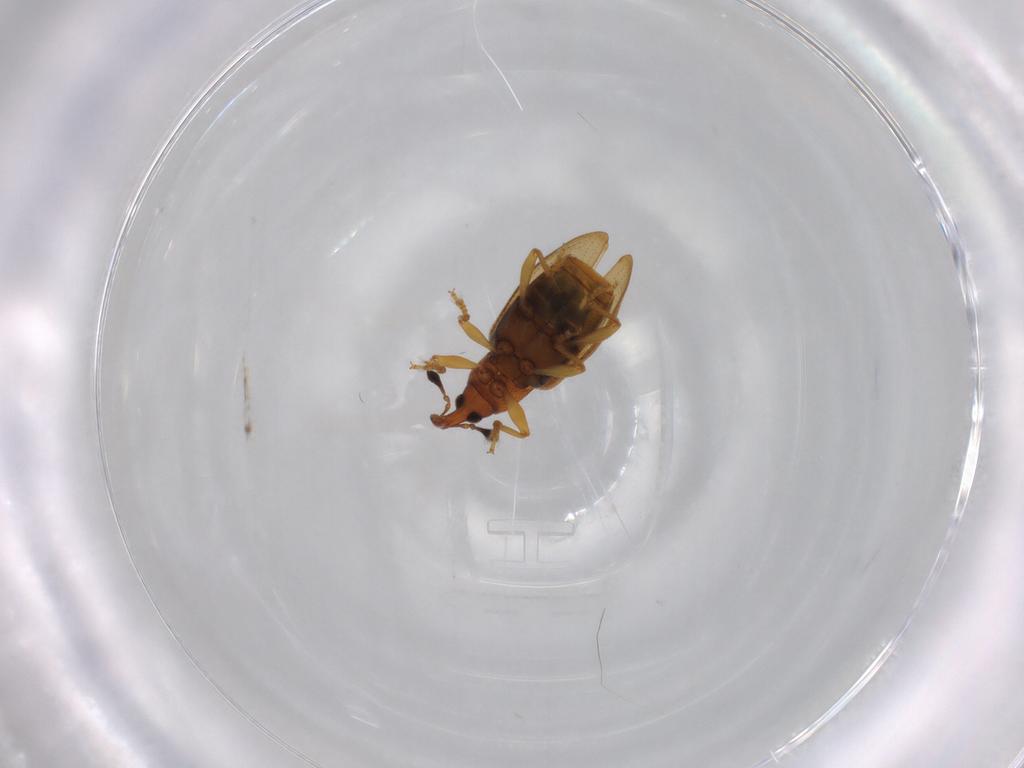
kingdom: Animalia
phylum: Arthropoda
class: Insecta
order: Coleoptera
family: Curculionidae
